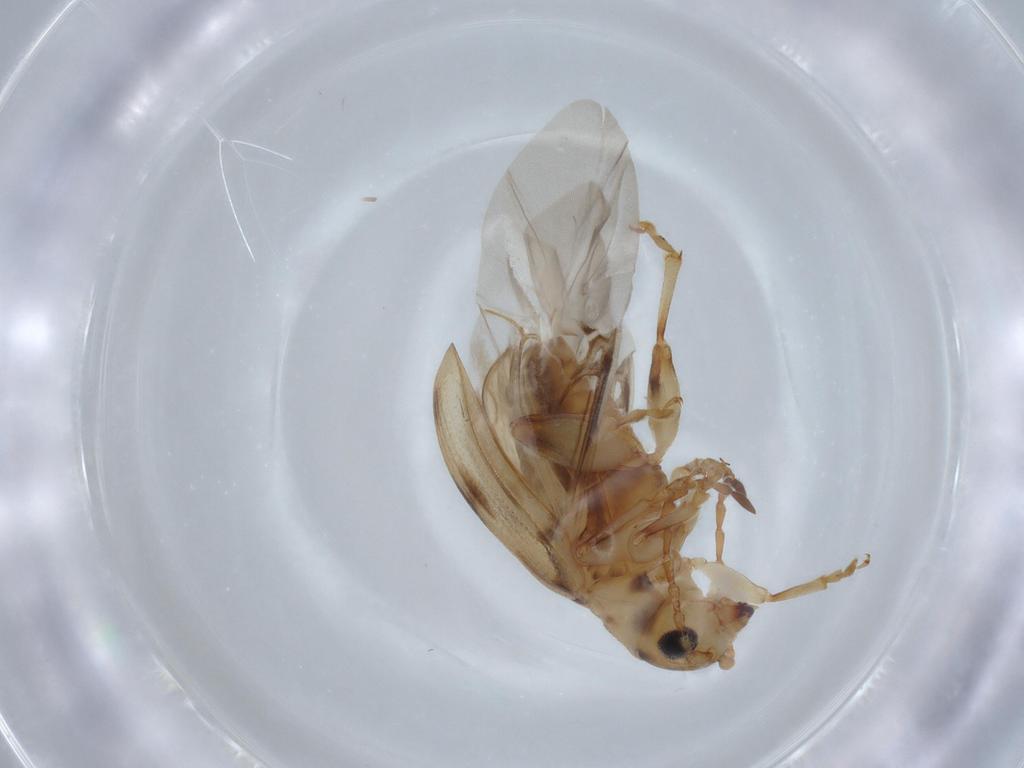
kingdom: Animalia
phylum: Arthropoda
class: Insecta
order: Coleoptera
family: Chrysomelidae
